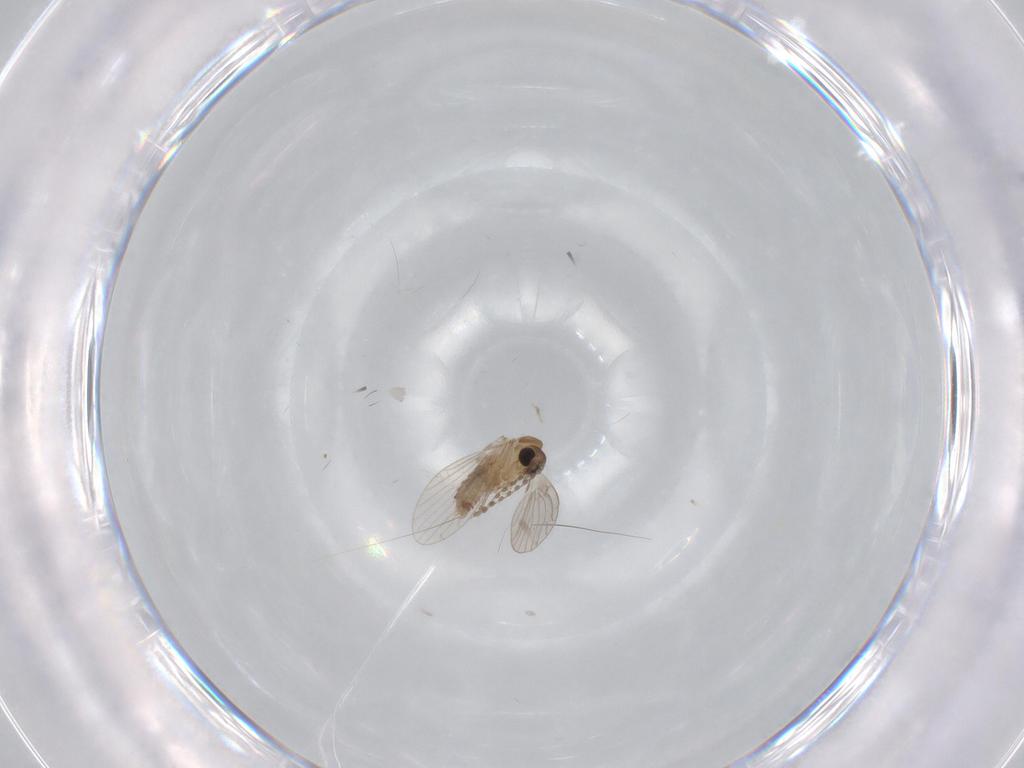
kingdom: Animalia
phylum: Arthropoda
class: Insecta
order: Diptera
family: Psychodidae
